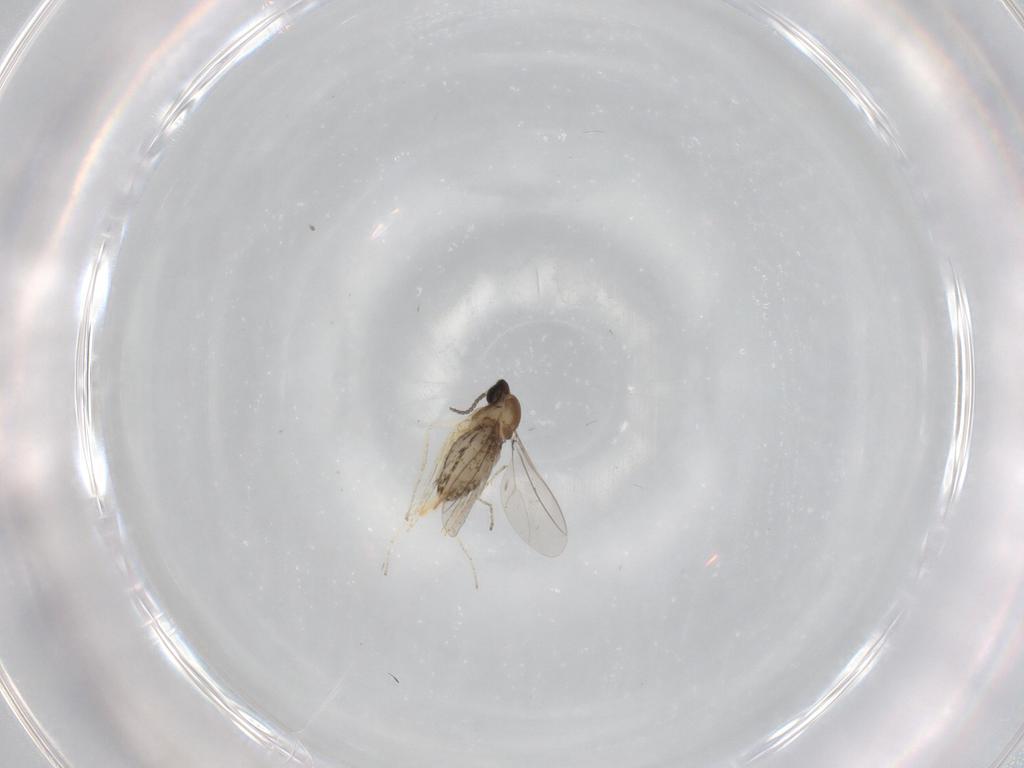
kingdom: Animalia
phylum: Arthropoda
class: Insecta
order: Diptera
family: Cecidomyiidae
